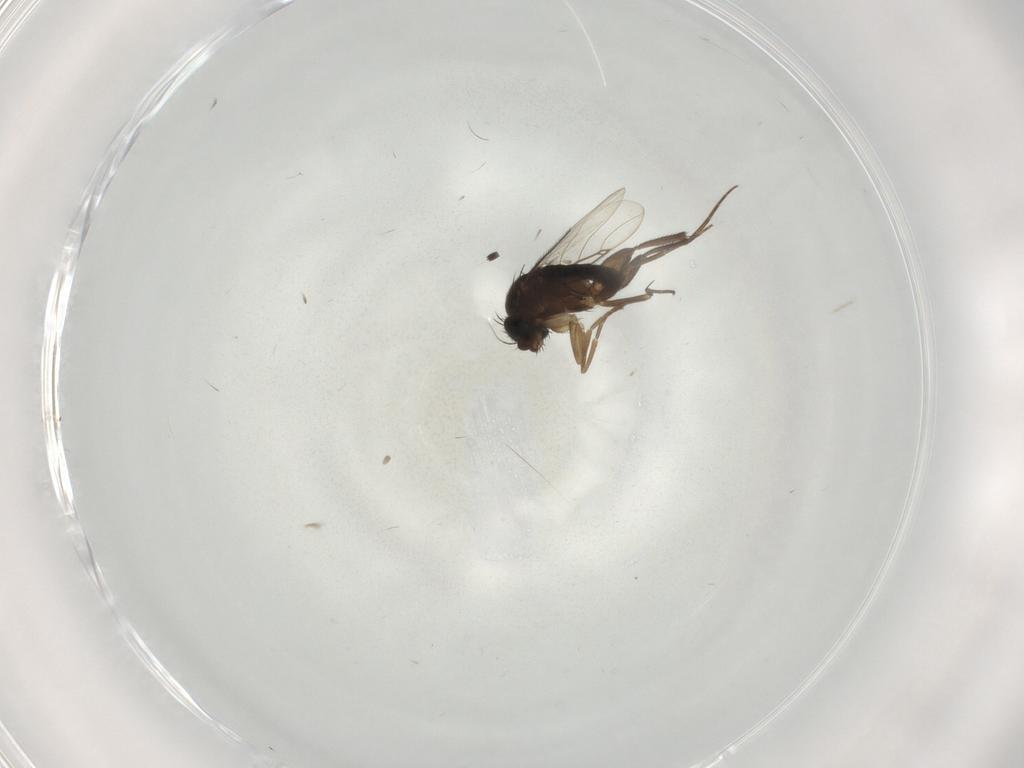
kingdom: Animalia
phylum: Arthropoda
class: Insecta
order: Diptera
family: Phoridae
